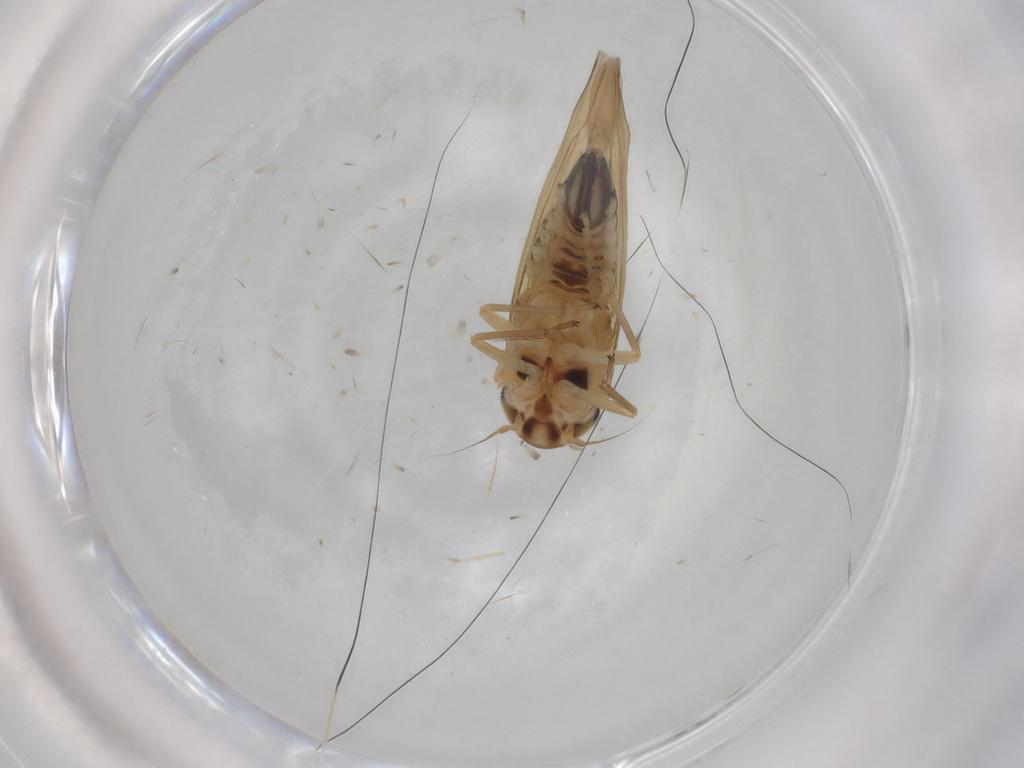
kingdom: Animalia
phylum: Arthropoda
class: Insecta
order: Hemiptera
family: Cicadellidae
